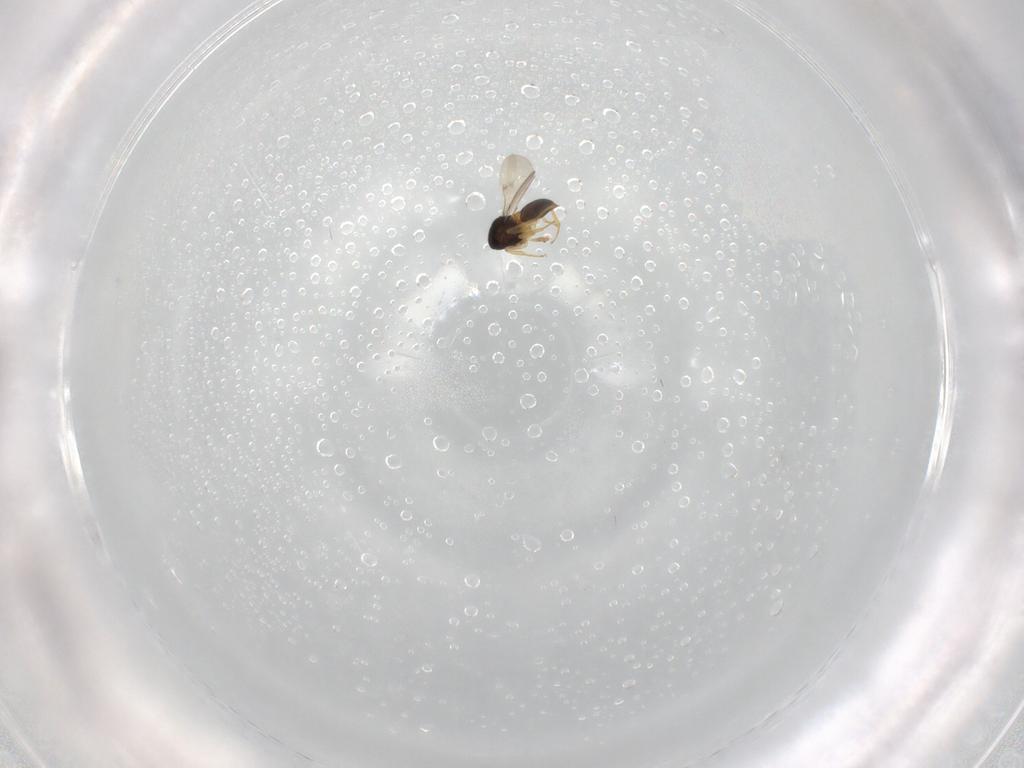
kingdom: Animalia
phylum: Arthropoda
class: Insecta
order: Hymenoptera
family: Scelionidae
